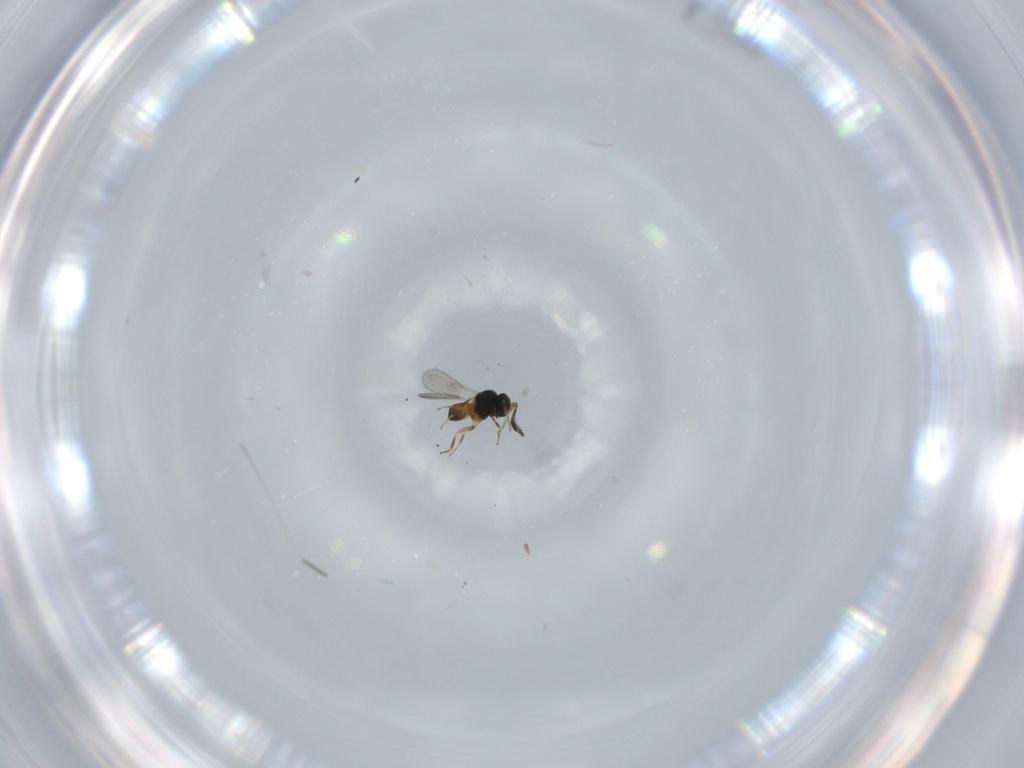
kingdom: Animalia
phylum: Arthropoda
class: Insecta
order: Hymenoptera
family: Scelionidae
